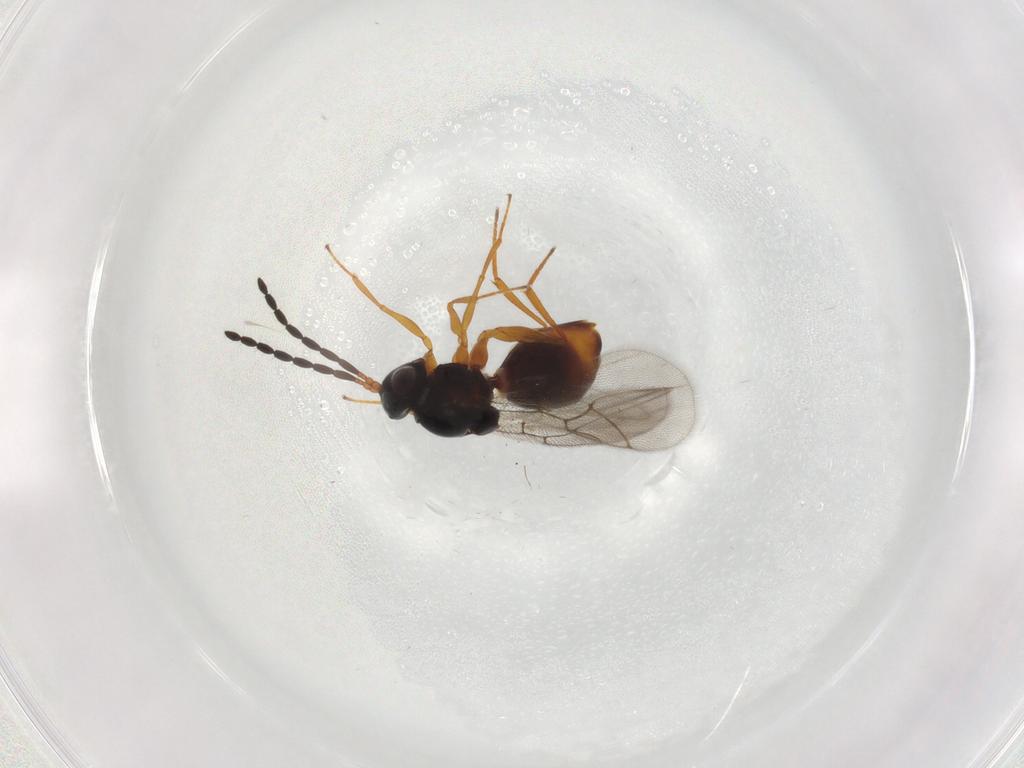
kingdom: Animalia
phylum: Arthropoda
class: Insecta
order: Hymenoptera
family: Figitidae
